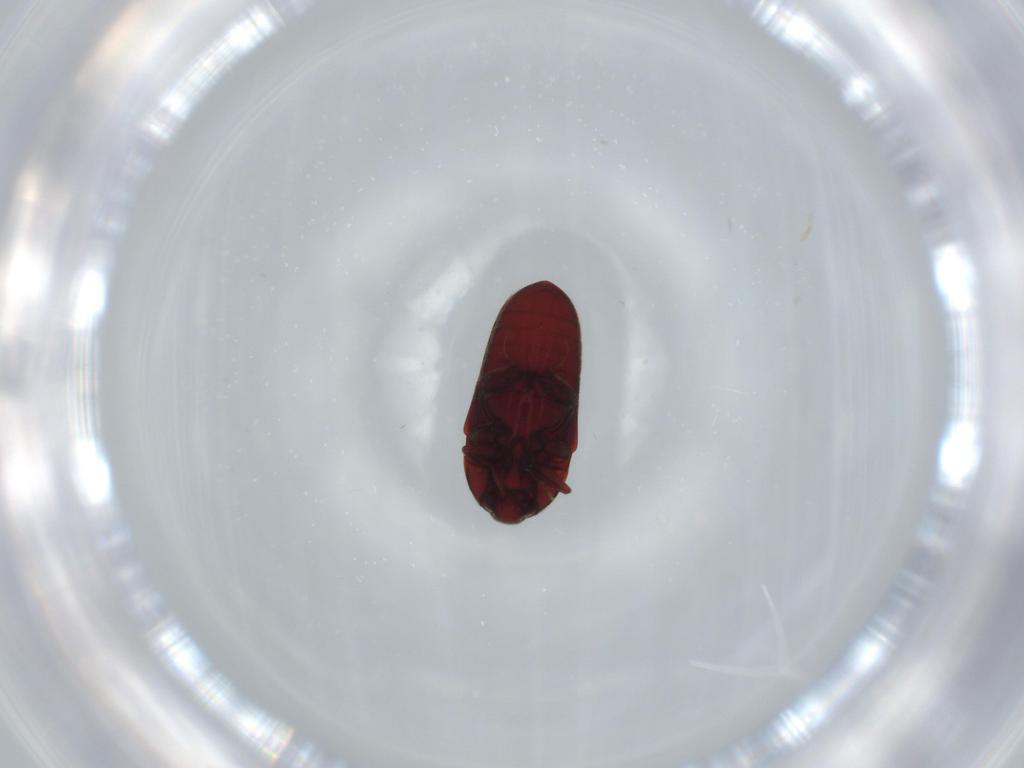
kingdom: Animalia
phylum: Arthropoda
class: Insecta
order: Coleoptera
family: Throscidae
